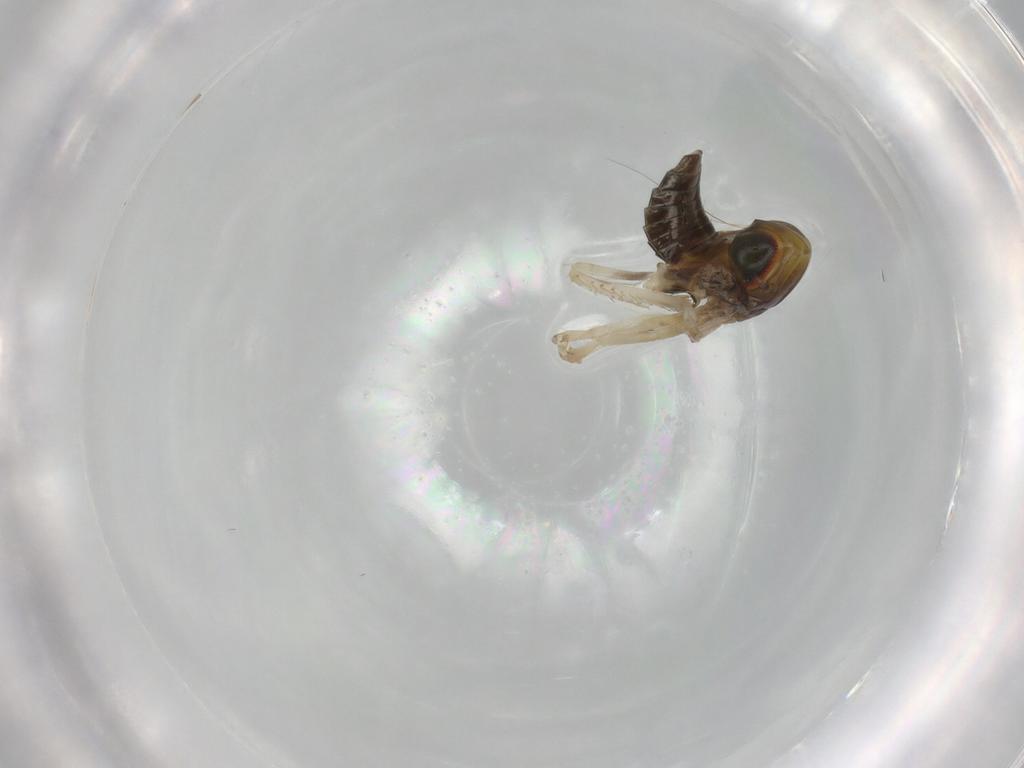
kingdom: Animalia
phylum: Arthropoda
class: Insecta
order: Hemiptera
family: Cicadellidae
